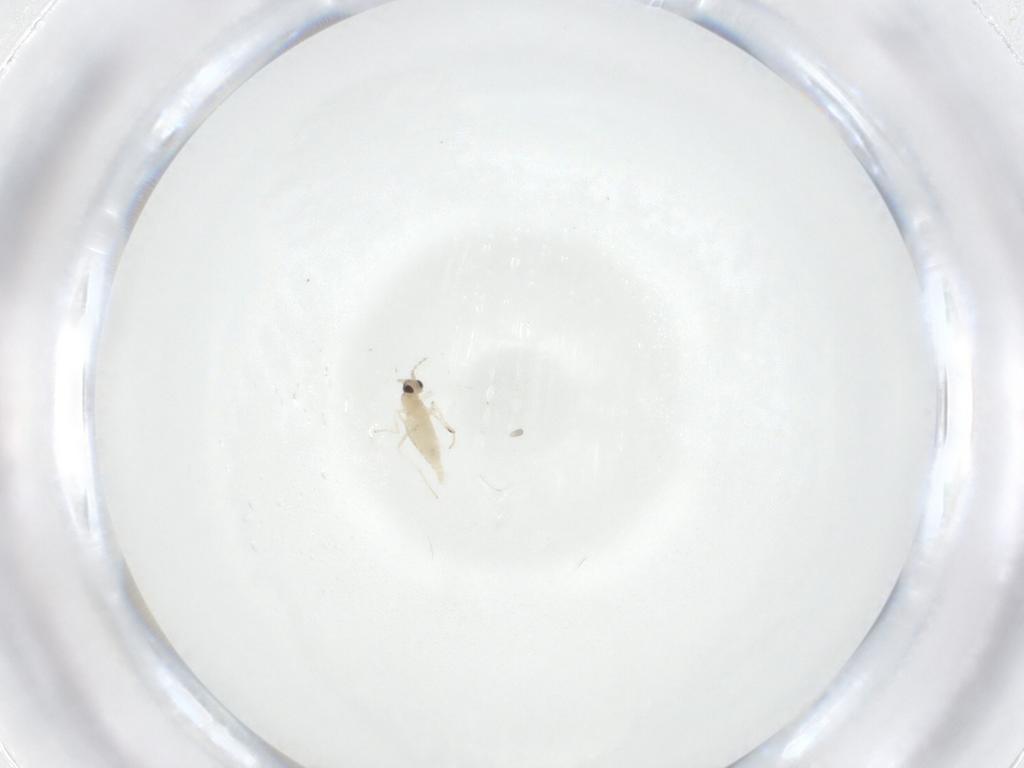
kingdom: Animalia
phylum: Arthropoda
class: Insecta
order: Diptera
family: Cecidomyiidae
